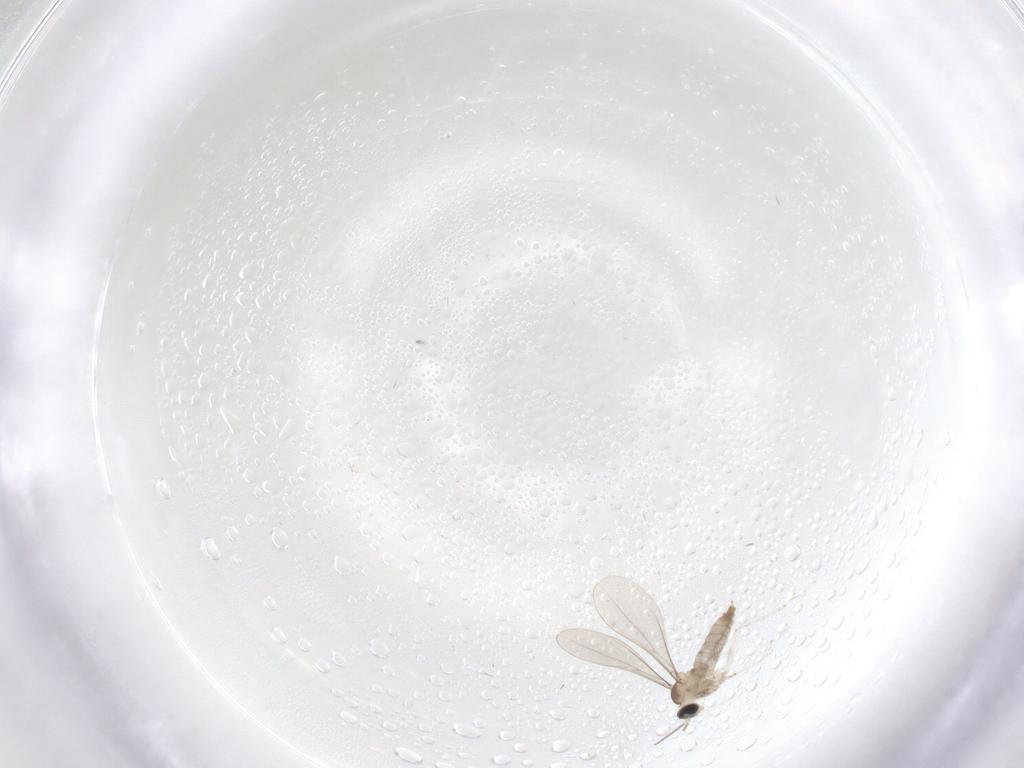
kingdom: Animalia
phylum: Arthropoda
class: Insecta
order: Diptera
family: Cecidomyiidae
